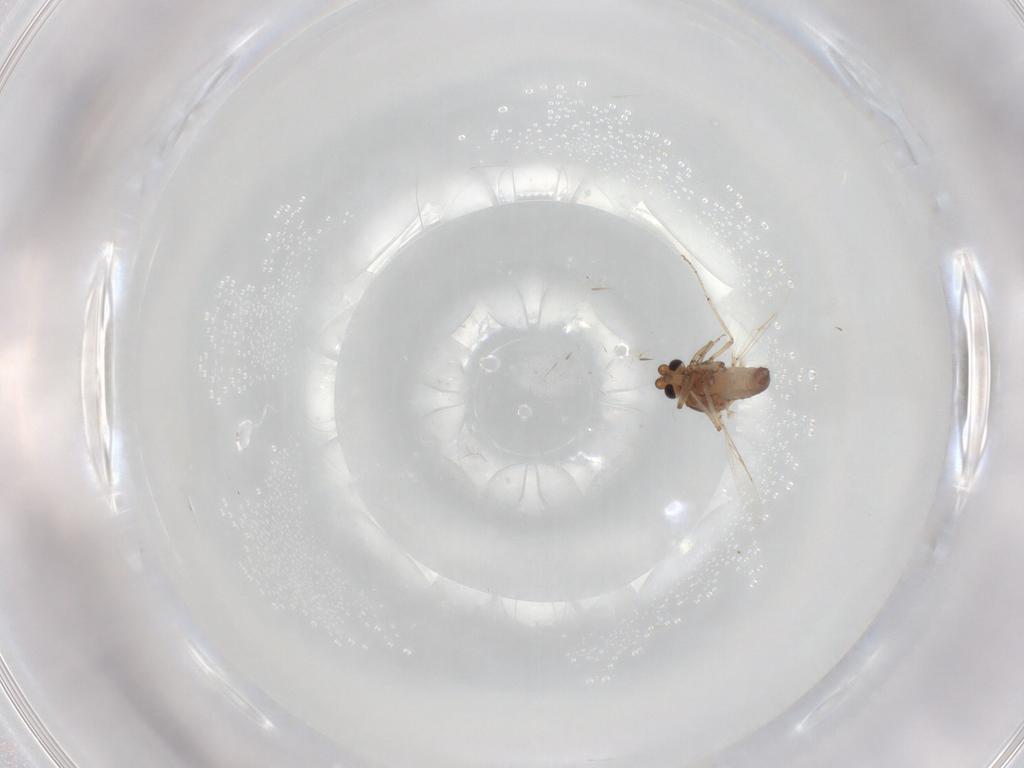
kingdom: Animalia
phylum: Arthropoda
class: Insecta
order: Diptera
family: Ceratopogonidae
